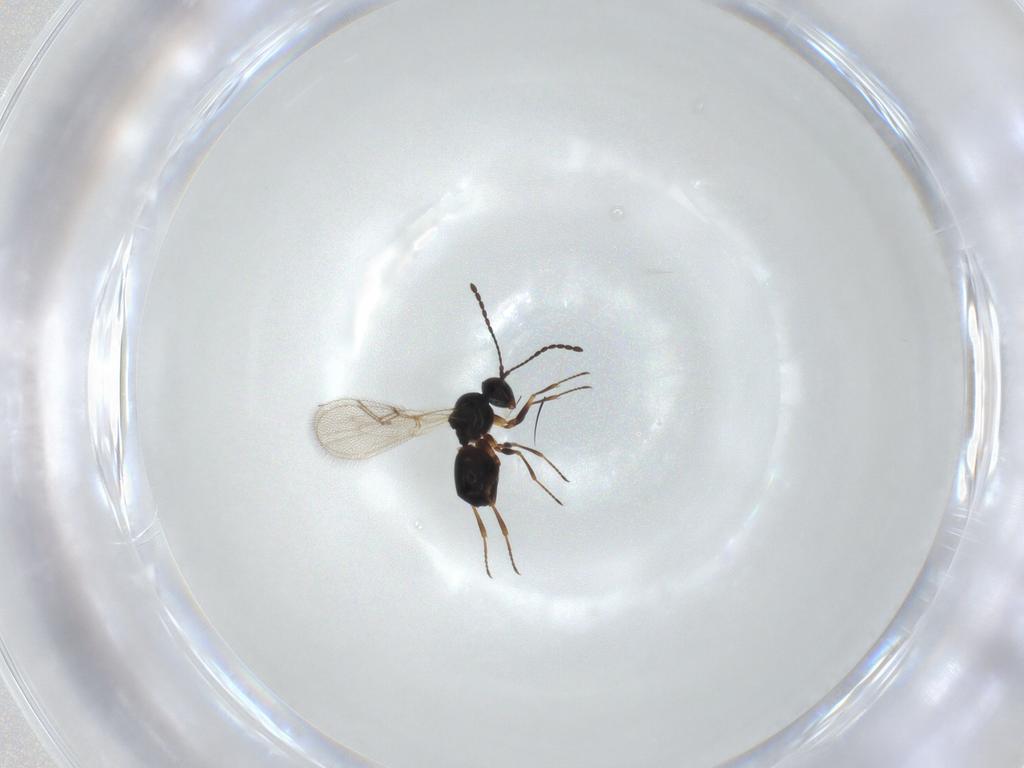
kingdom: Animalia
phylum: Arthropoda
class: Insecta
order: Hymenoptera
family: Figitidae
